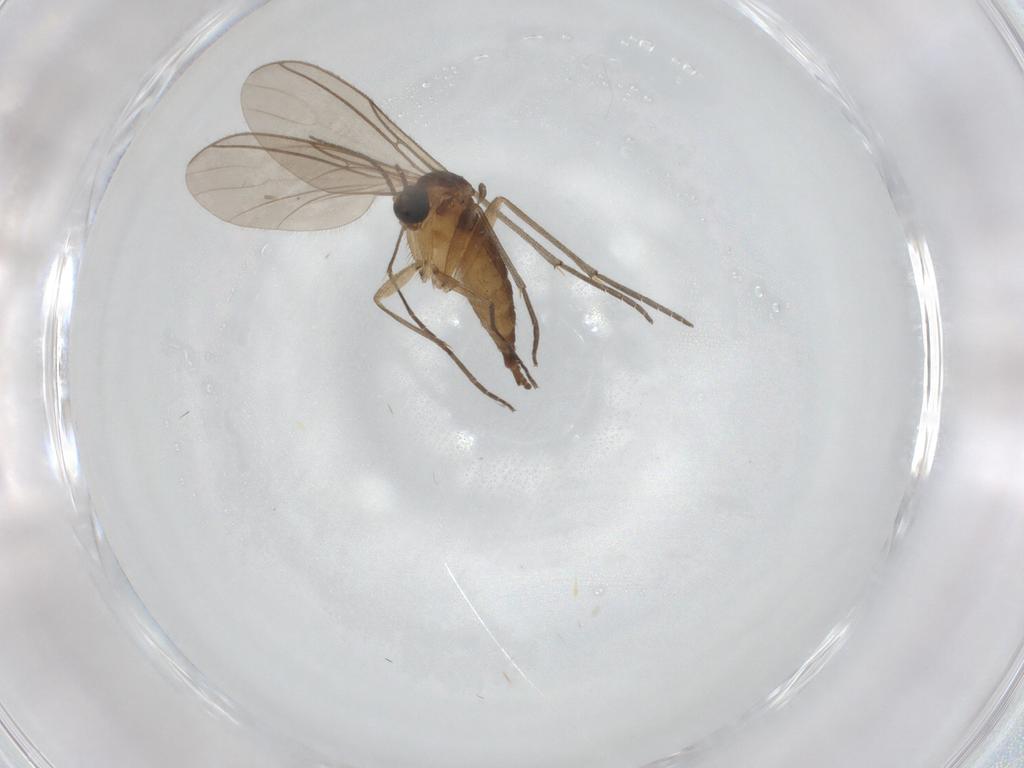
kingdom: Animalia
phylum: Arthropoda
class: Insecta
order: Diptera
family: Sciaridae
